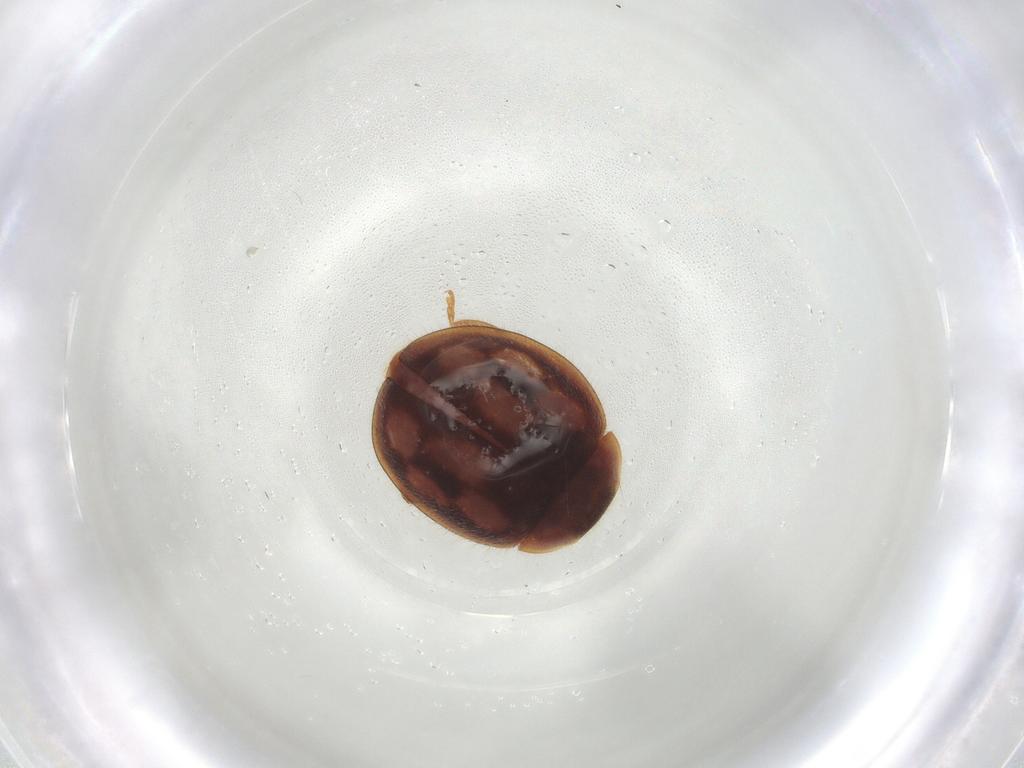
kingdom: Animalia
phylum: Arthropoda
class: Insecta
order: Coleoptera
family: Coccinellidae
